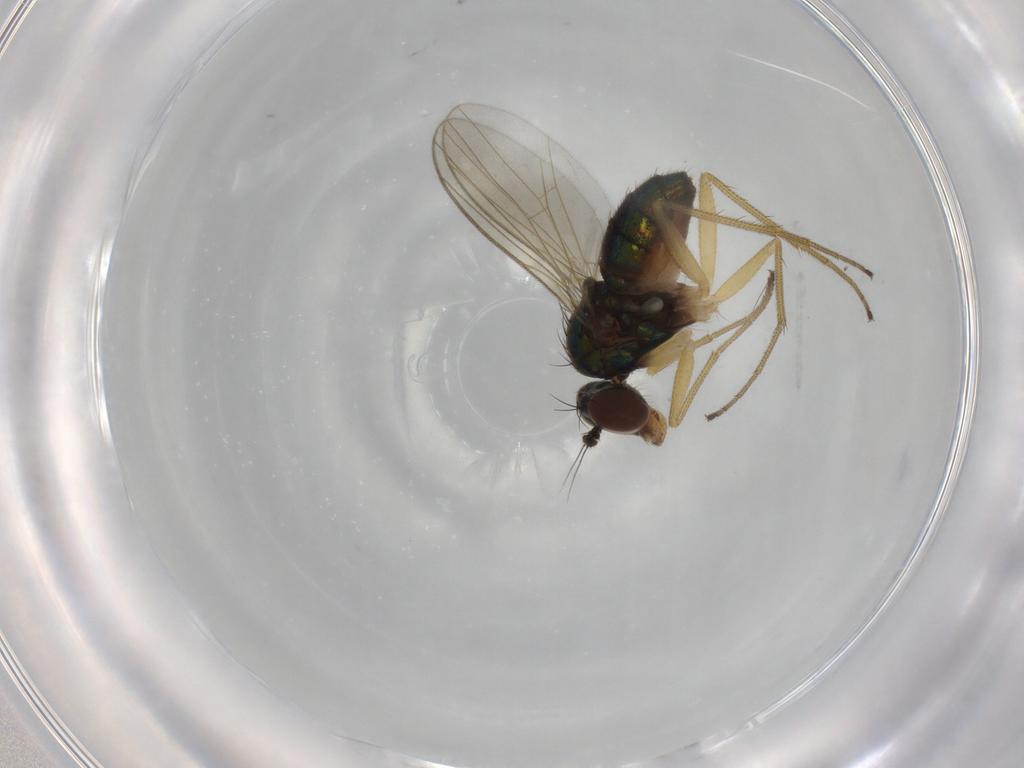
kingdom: Animalia
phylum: Arthropoda
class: Insecta
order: Diptera
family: Dolichopodidae
